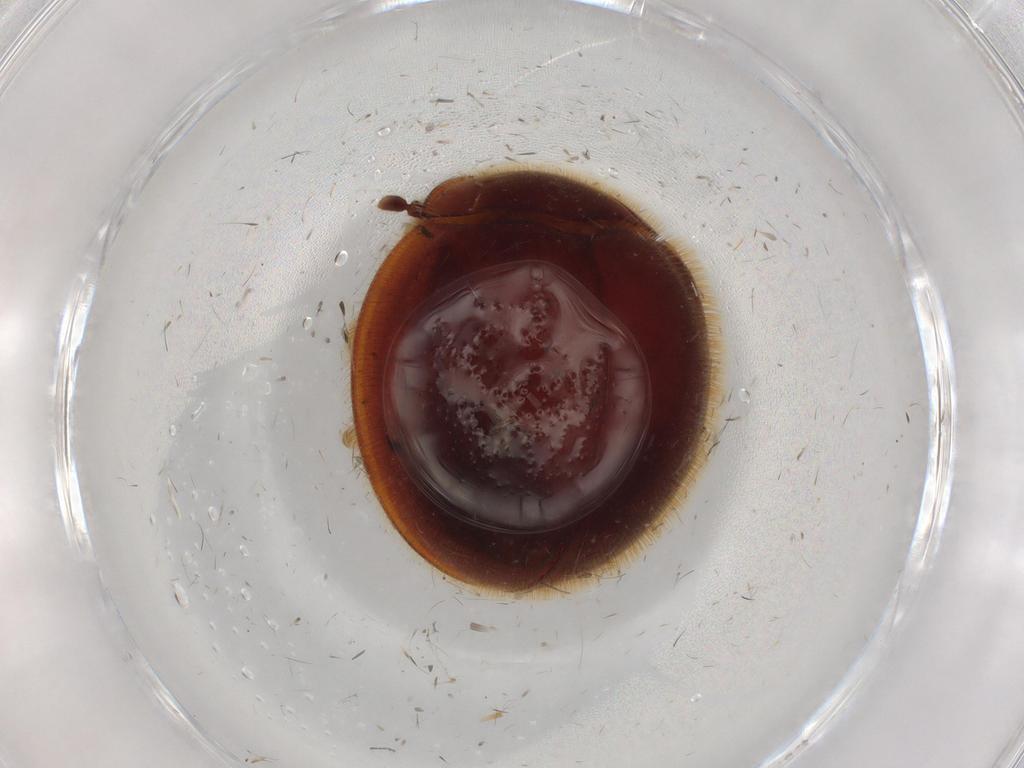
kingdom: Animalia
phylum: Arthropoda
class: Insecta
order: Coleoptera
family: Anamorphidae
